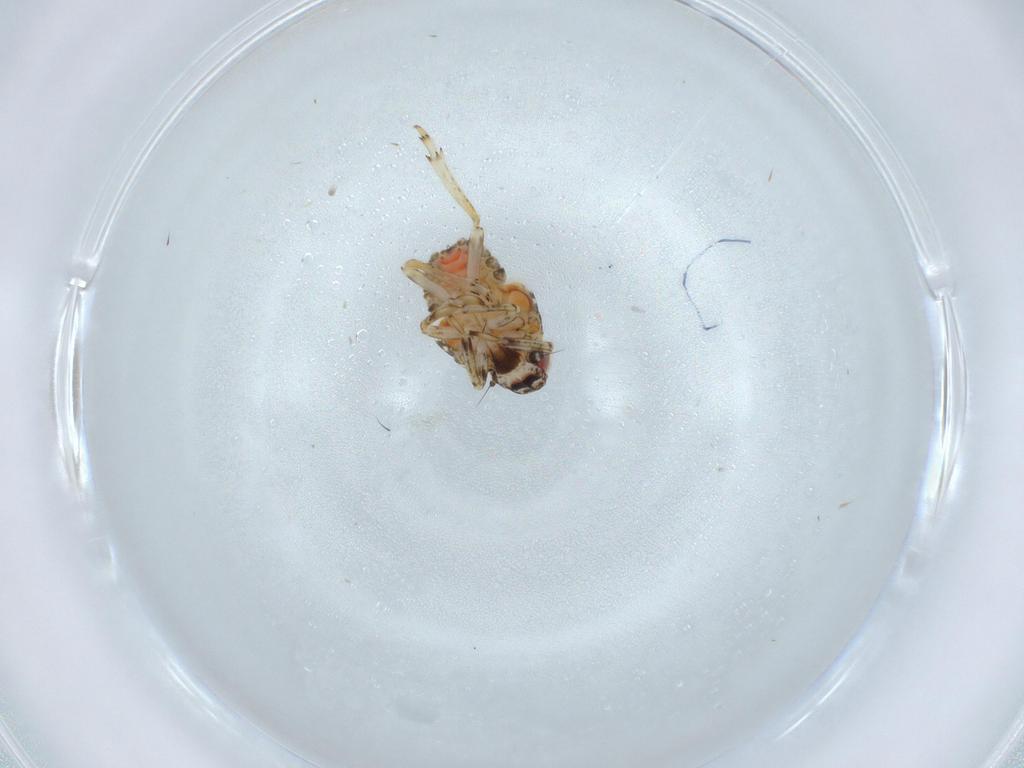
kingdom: Animalia
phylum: Arthropoda
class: Insecta
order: Hemiptera
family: Issidae
